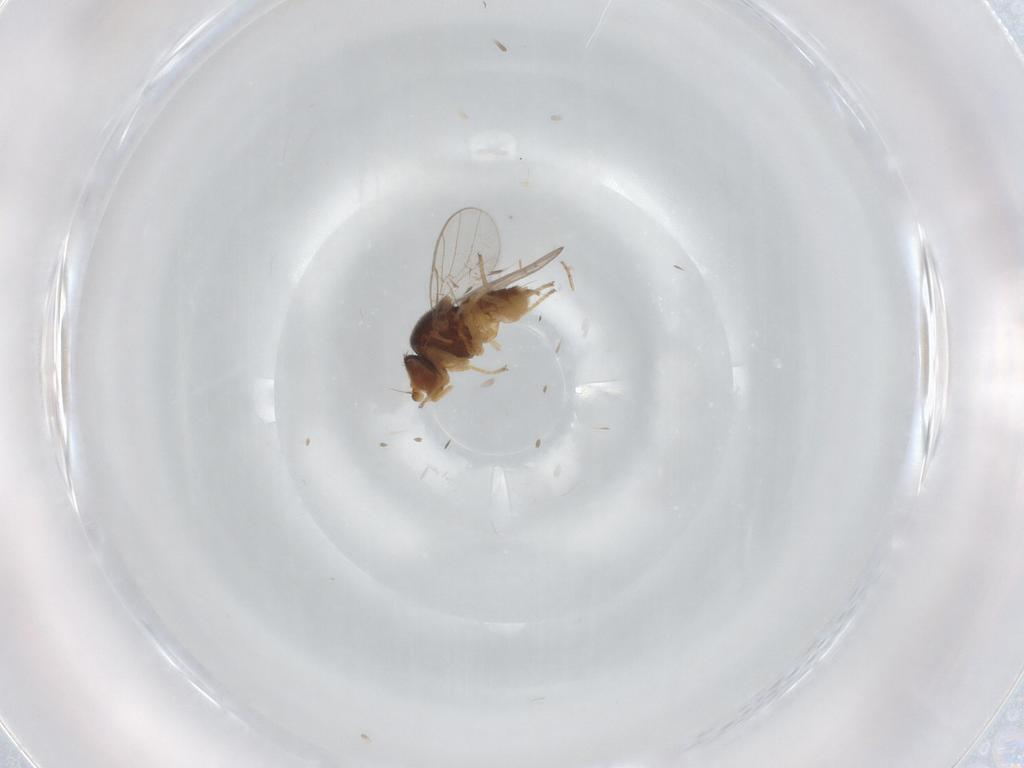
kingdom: Animalia
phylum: Arthropoda
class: Insecta
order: Diptera
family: Chloropidae
